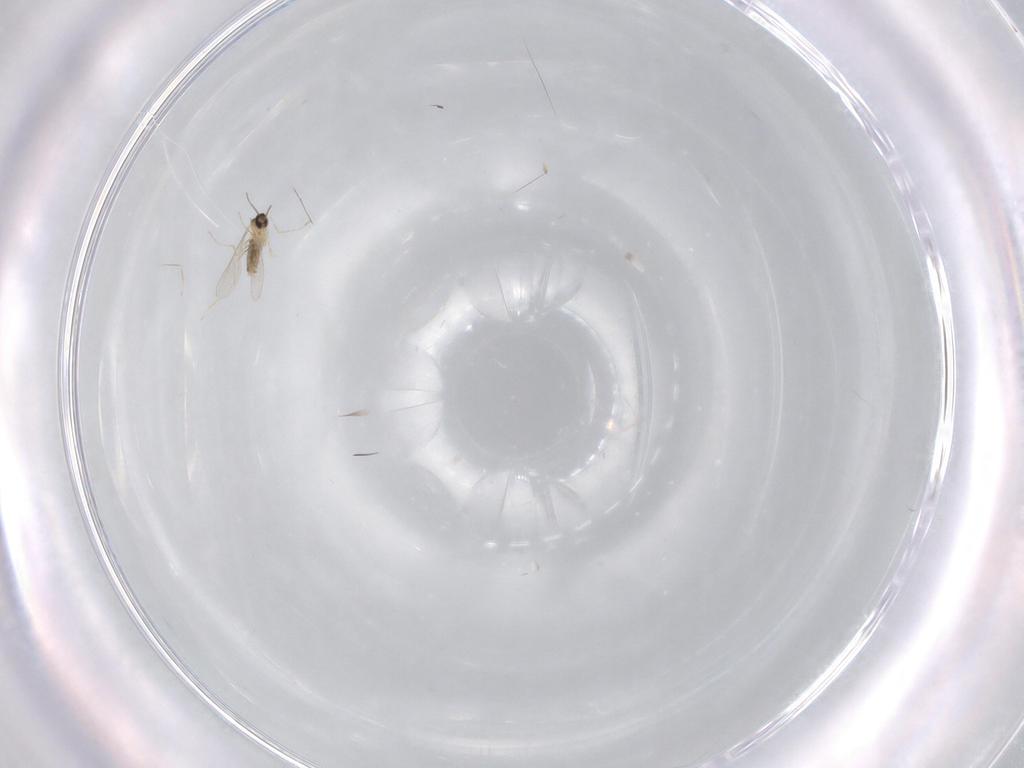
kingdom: Animalia
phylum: Arthropoda
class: Insecta
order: Diptera
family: Cecidomyiidae
